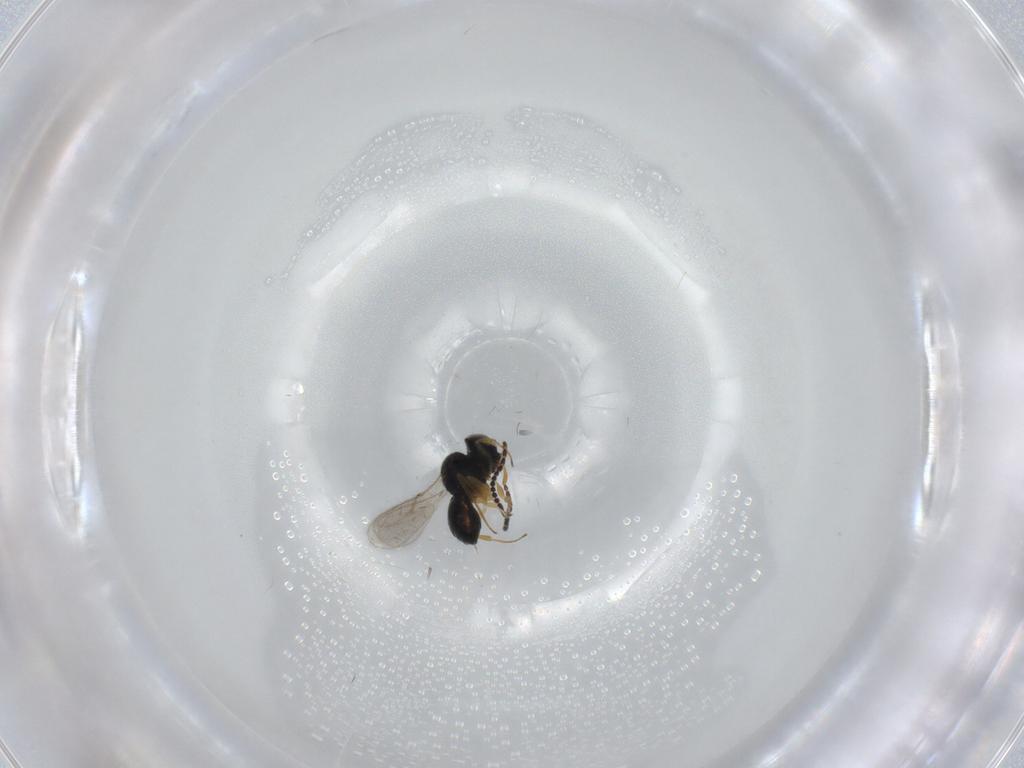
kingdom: Animalia
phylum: Arthropoda
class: Insecta
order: Hymenoptera
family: Scelionidae
